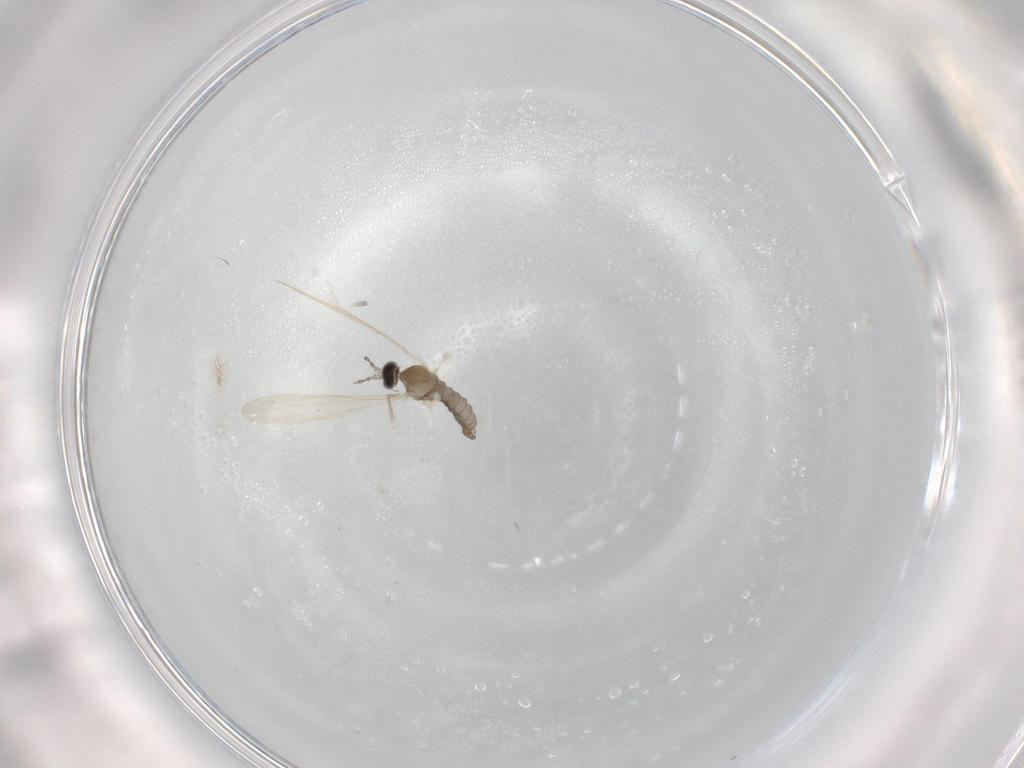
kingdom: Animalia
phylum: Arthropoda
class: Insecta
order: Diptera
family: Cecidomyiidae
